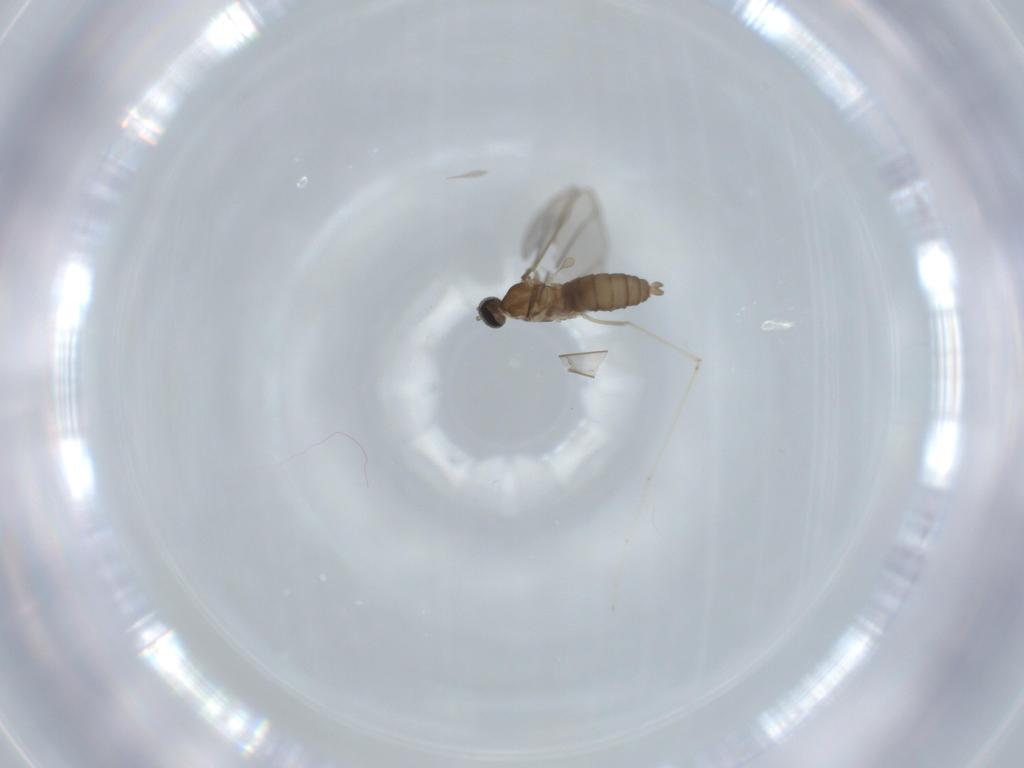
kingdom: Animalia
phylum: Arthropoda
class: Insecta
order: Diptera
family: Cecidomyiidae
